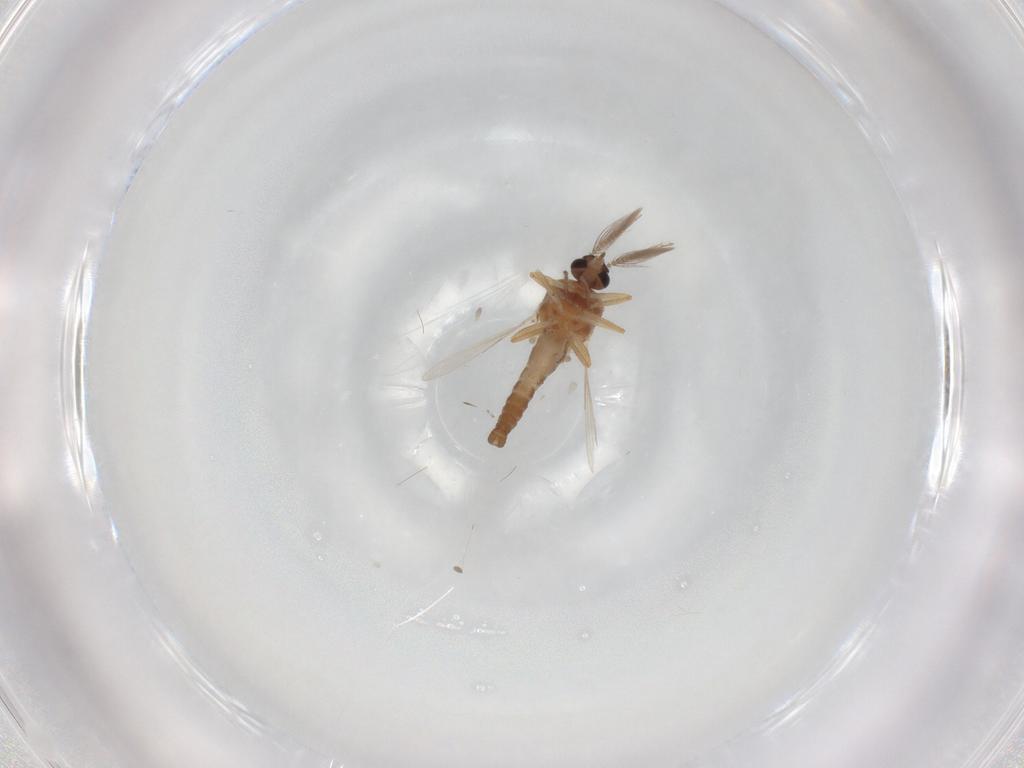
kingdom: Animalia
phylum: Arthropoda
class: Insecta
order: Diptera
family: Ceratopogonidae
